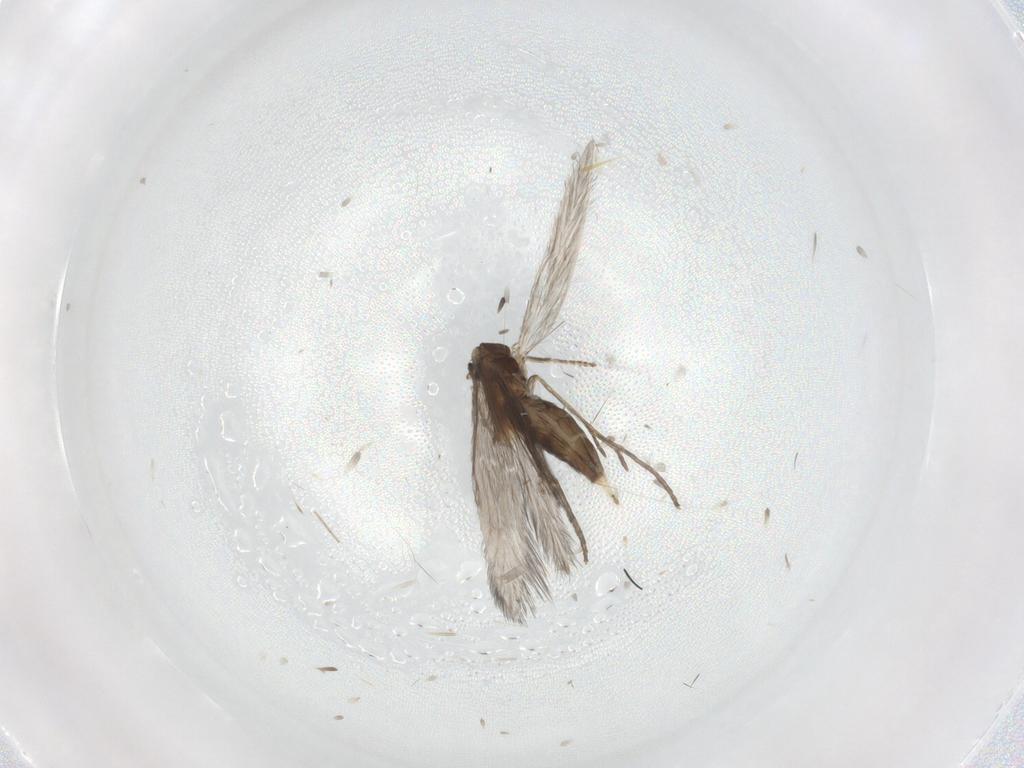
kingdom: Animalia
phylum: Arthropoda
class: Insecta
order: Trichoptera
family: Hydroptilidae
